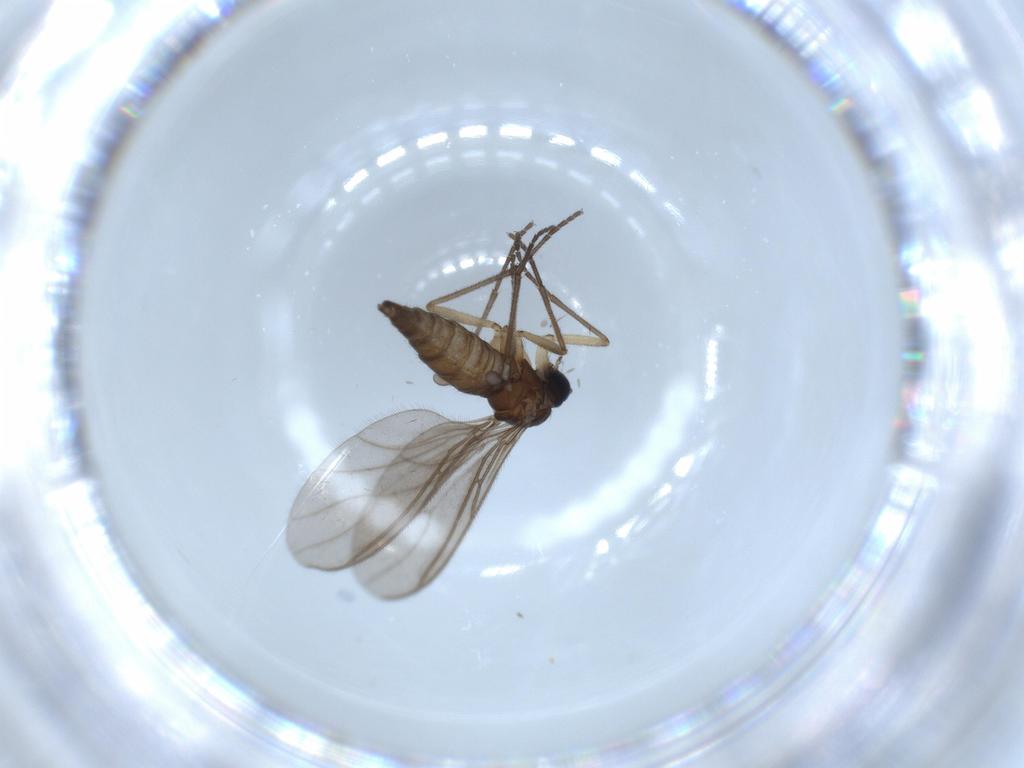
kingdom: Animalia
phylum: Arthropoda
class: Insecta
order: Diptera
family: Sciaridae
